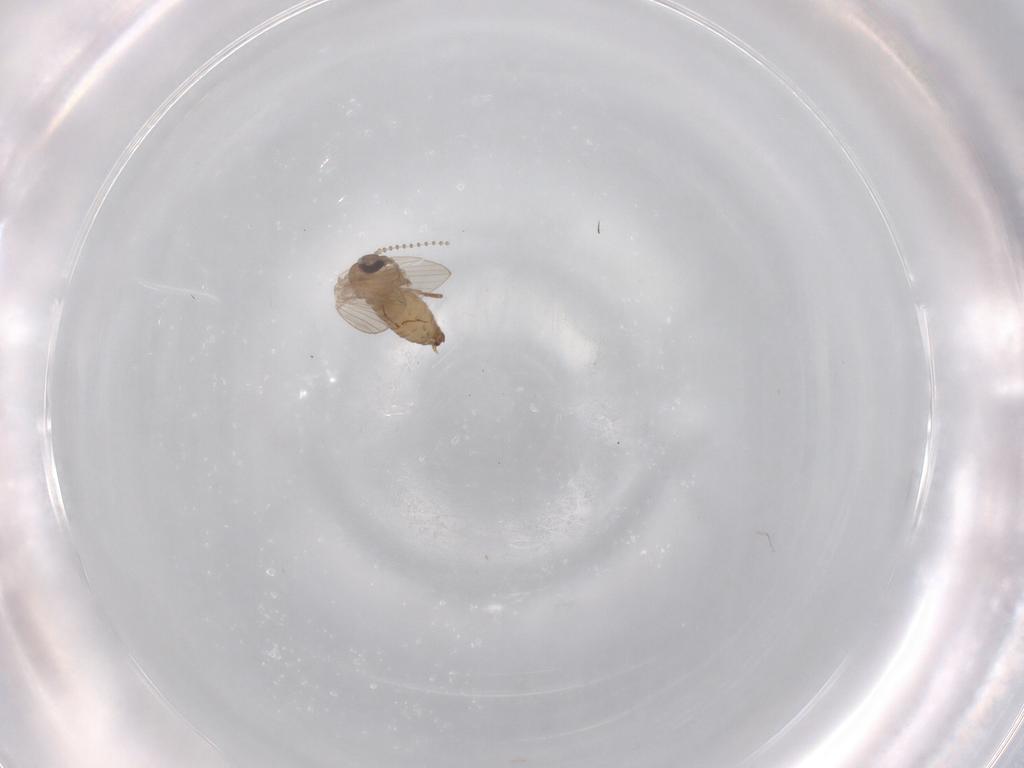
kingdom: Animalia
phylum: Arthropoda
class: Insecta
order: Diptera
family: Psychodidae
